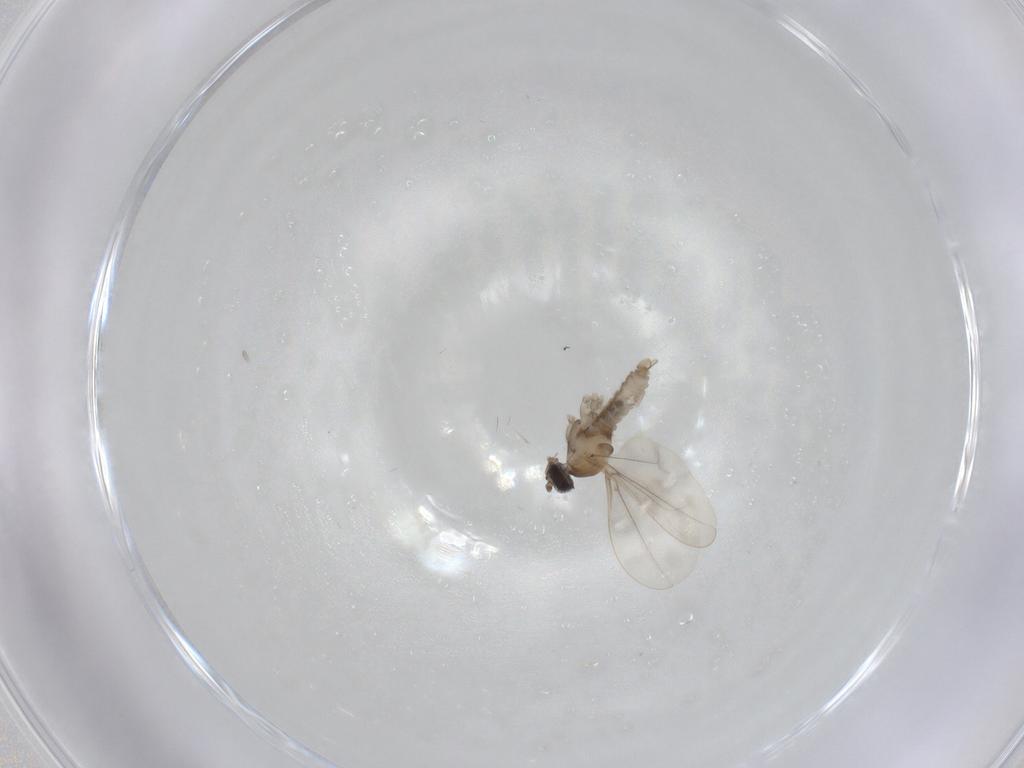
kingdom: Animalia
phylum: Arthropoda
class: Insecta
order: Diptera
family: Cecidomyiidae
